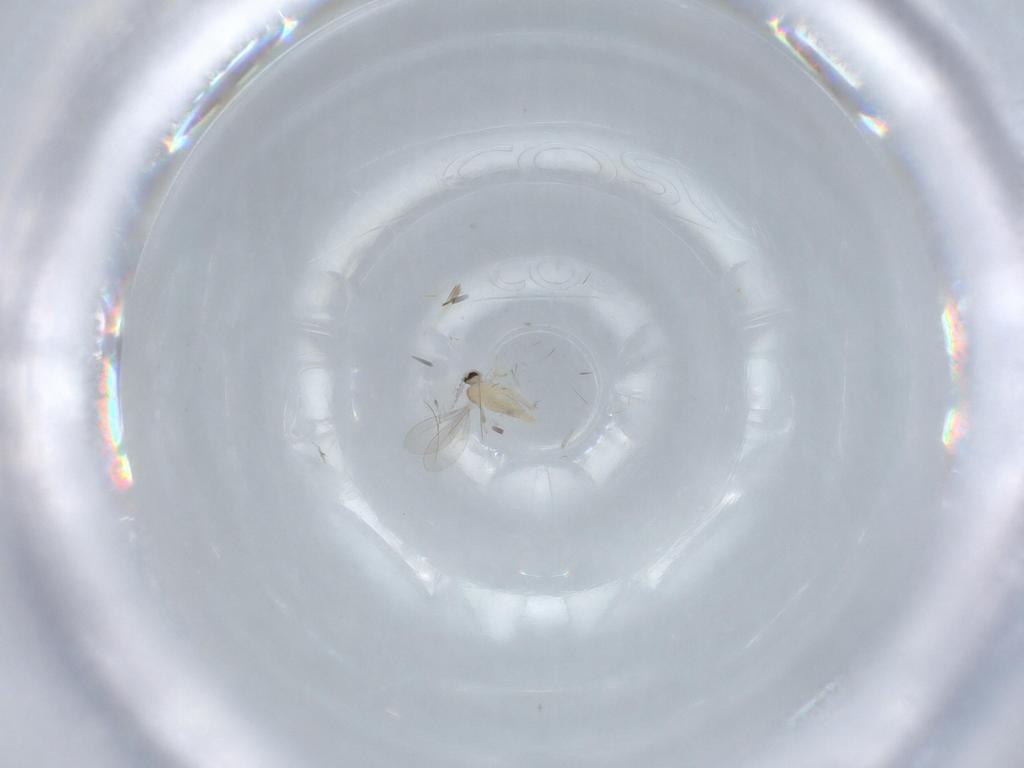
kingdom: Animalia
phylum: Arthropoda
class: Insecta
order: Diptera
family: Cecidomyiidae
